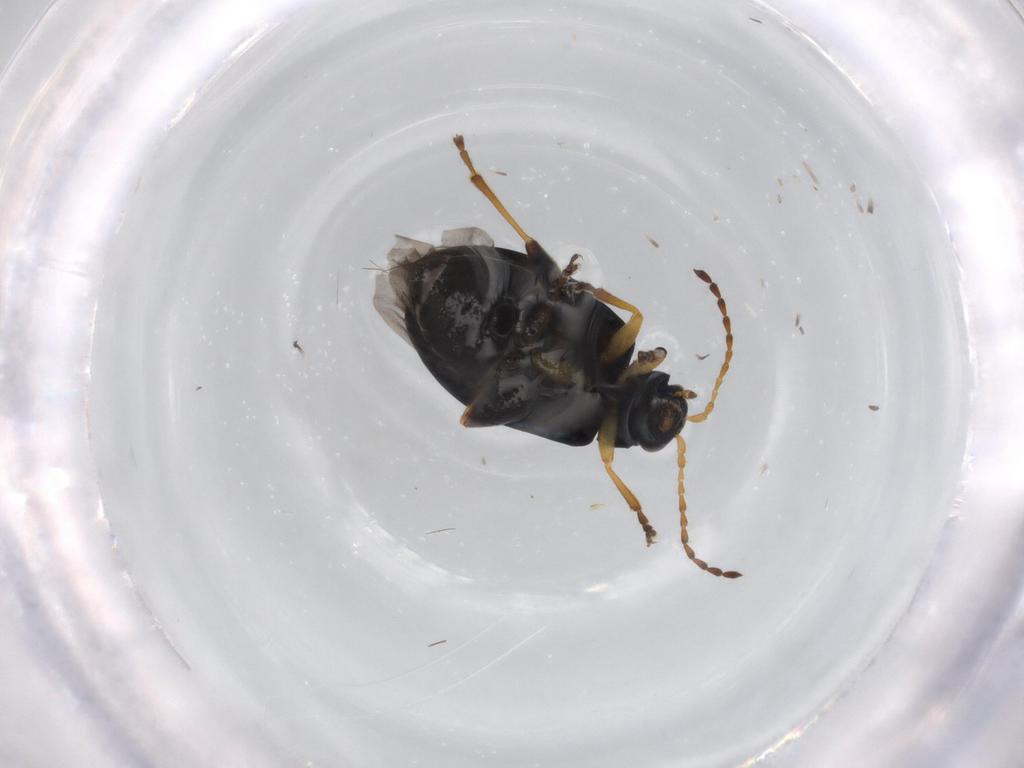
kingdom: Animalia
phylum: Arthropoda
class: Insecta
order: Coleoptera
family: Chrysomelidae
